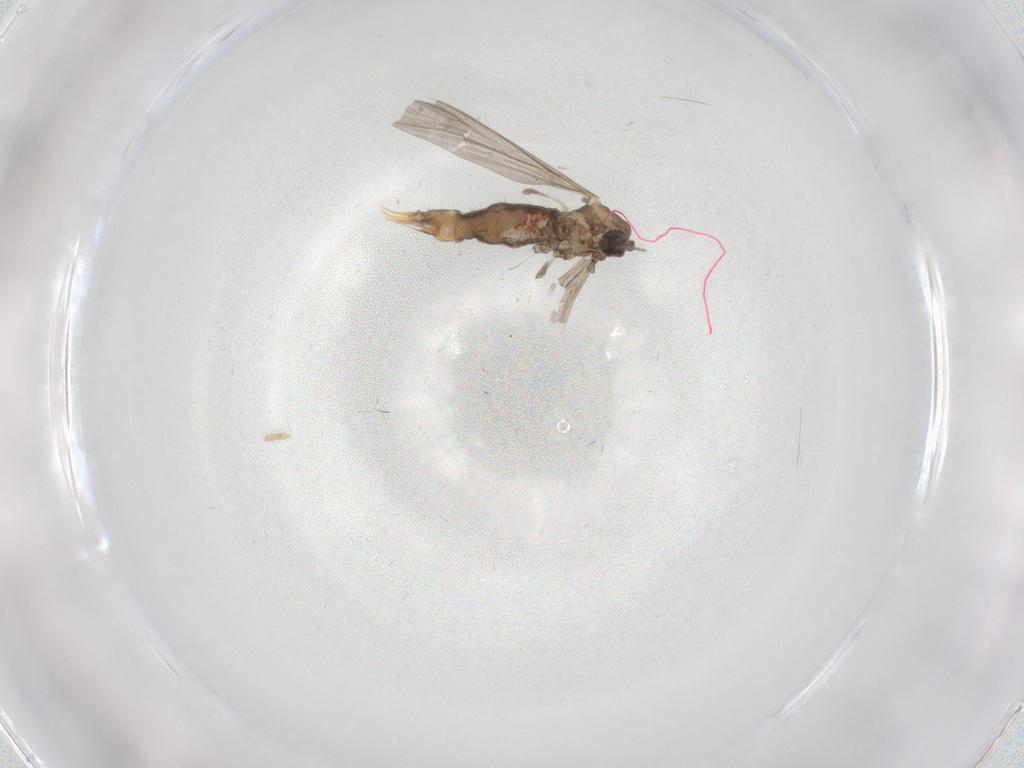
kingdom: Animalia
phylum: Arthropoda
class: Insecta
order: Diptera
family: Limoniidae
